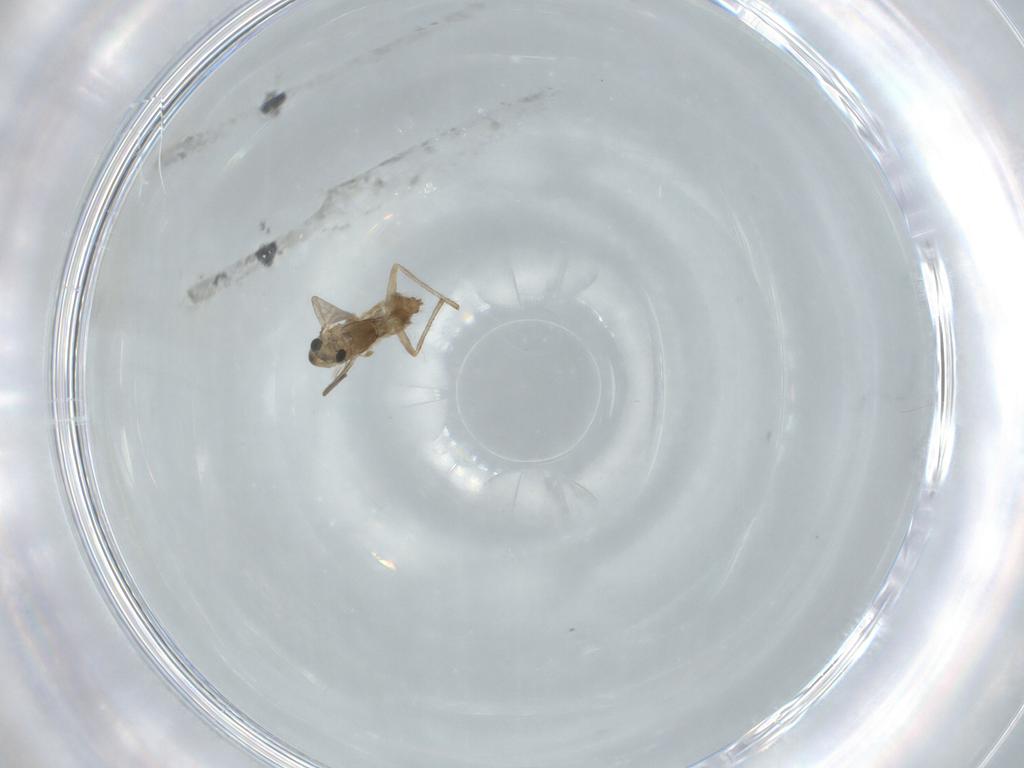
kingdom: Animalia
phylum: Arthropoda
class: Insecta
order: Diptera
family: Chironomidae
